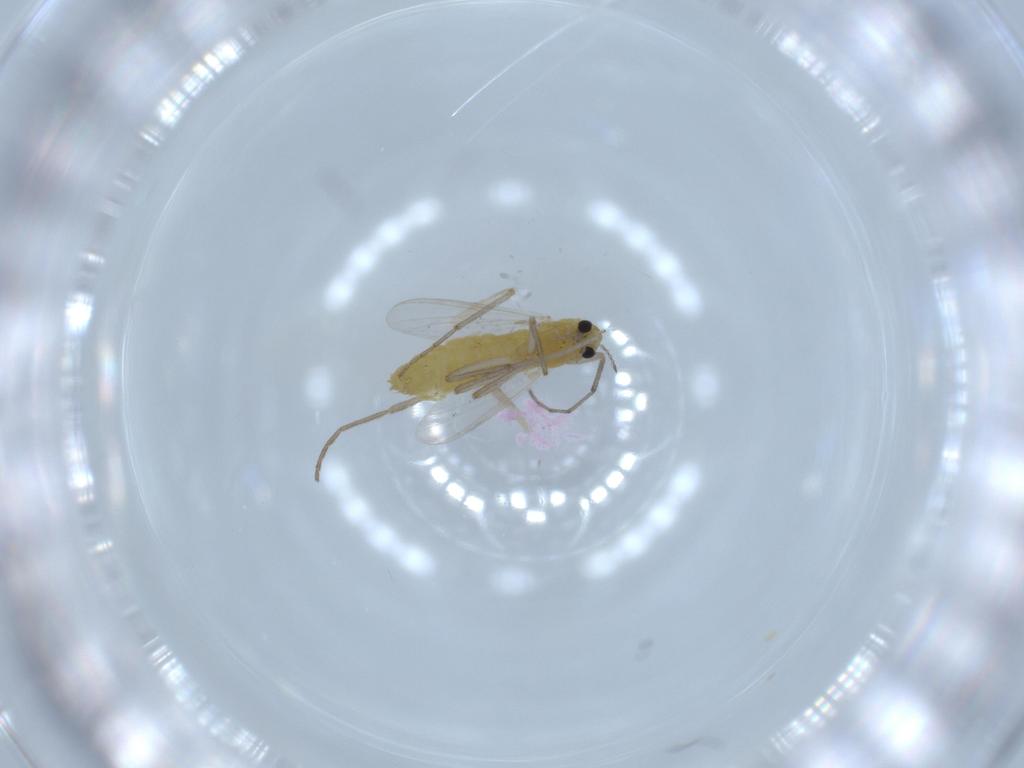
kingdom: Animalia
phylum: Arthropoda
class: Insecta
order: Diptera
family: Chironomidae
